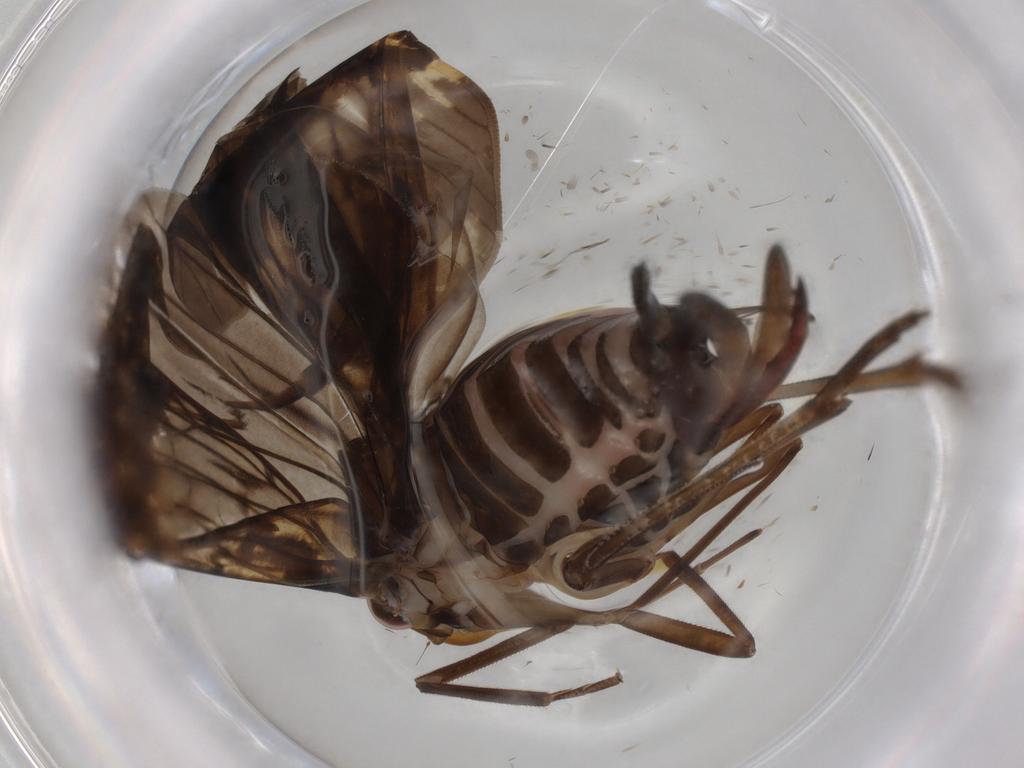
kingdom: Animalia
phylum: Arthropoda
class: Insecta
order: Hemiptera
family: Cixiidae
